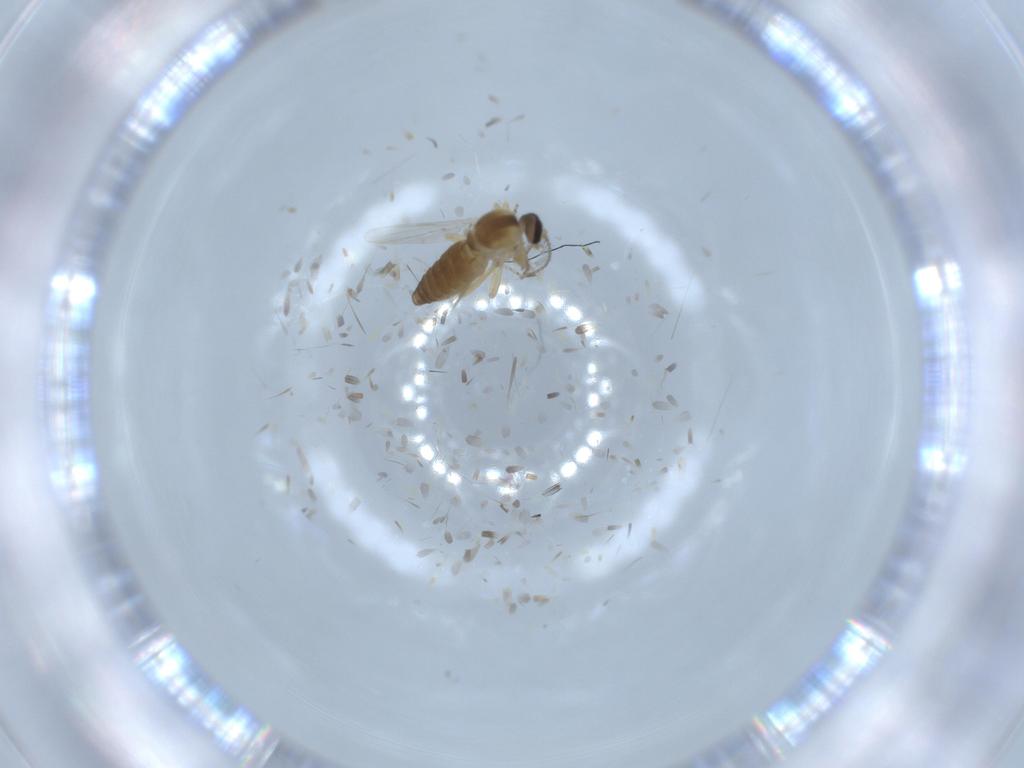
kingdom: Animalia
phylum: Arthropoda
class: Insecta
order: Diptera
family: Ceratopogonidae
